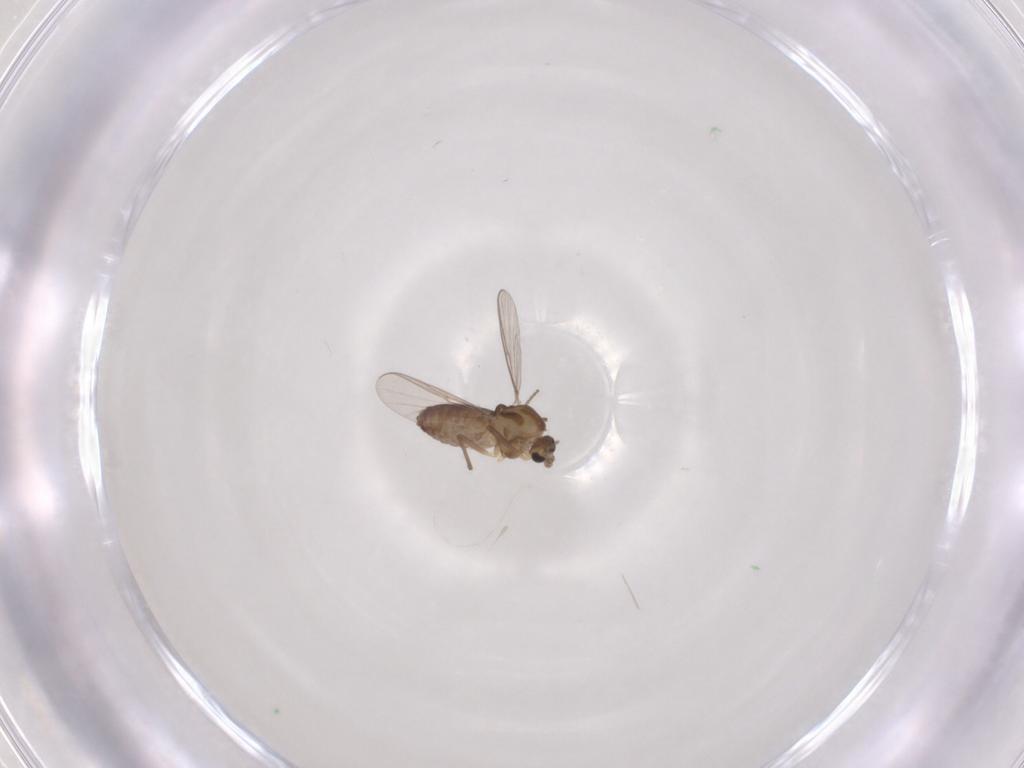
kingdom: Animalia
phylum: Arthropoda
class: Insecta
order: Diptera
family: Chironomidae
